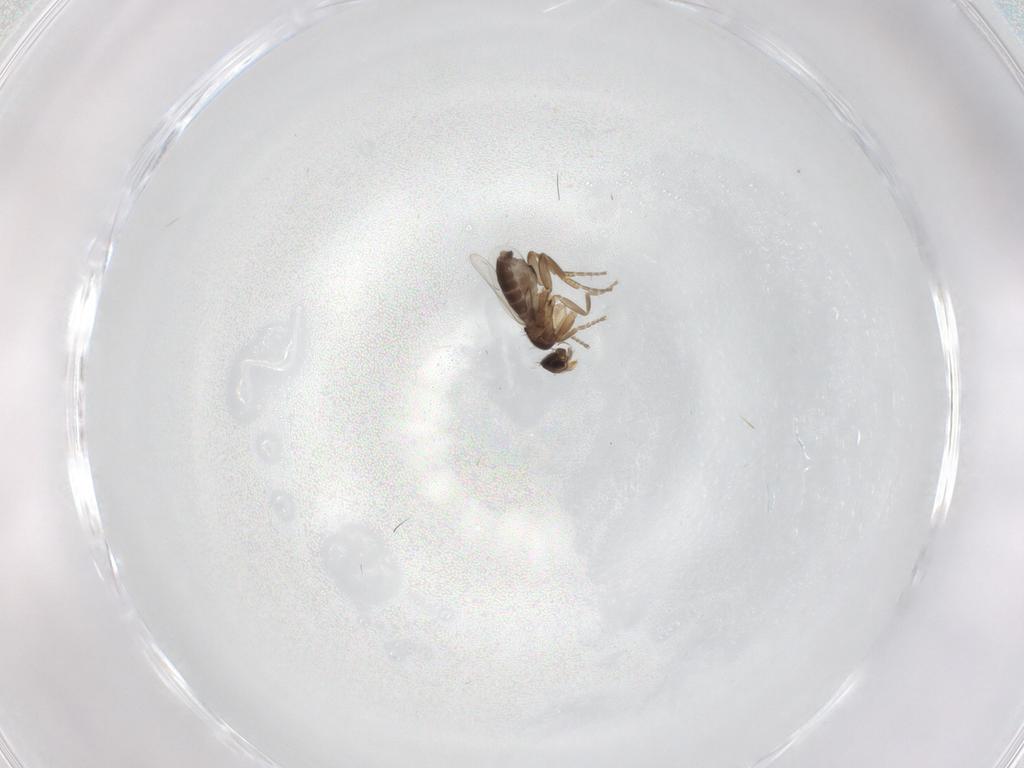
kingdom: Animalia
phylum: Arthropoda
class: Insecta
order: Diptera
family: Phoridae
